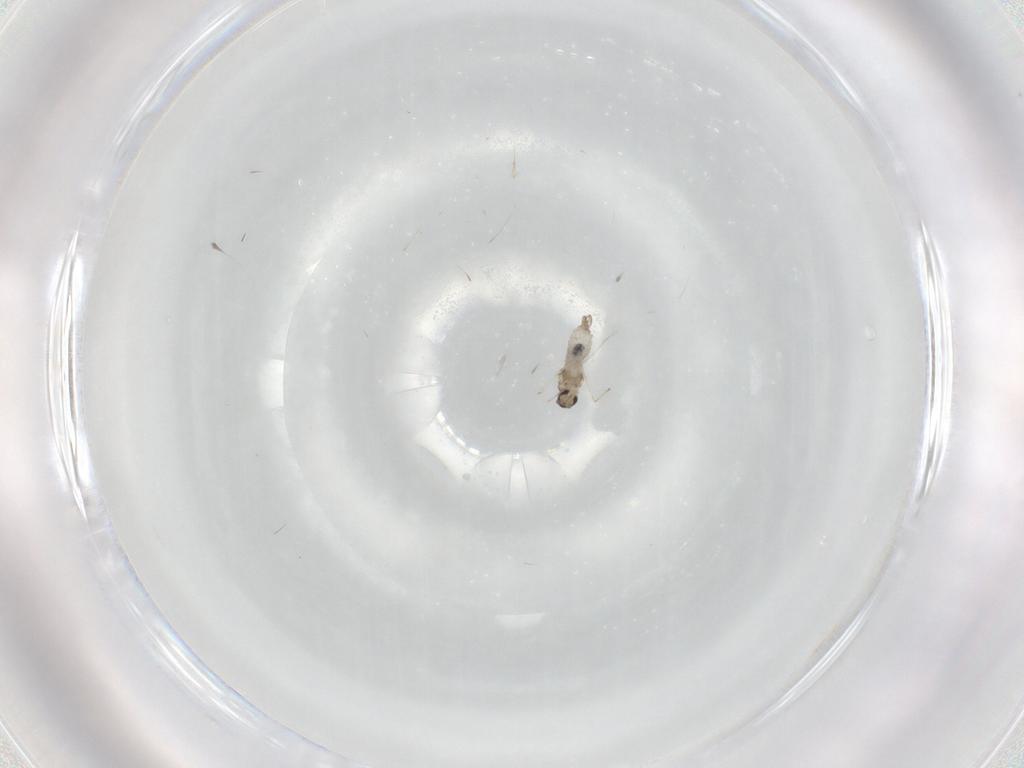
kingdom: Animalia
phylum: Arthropoda
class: Insecta
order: Diptera
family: Cecidomyiidae
